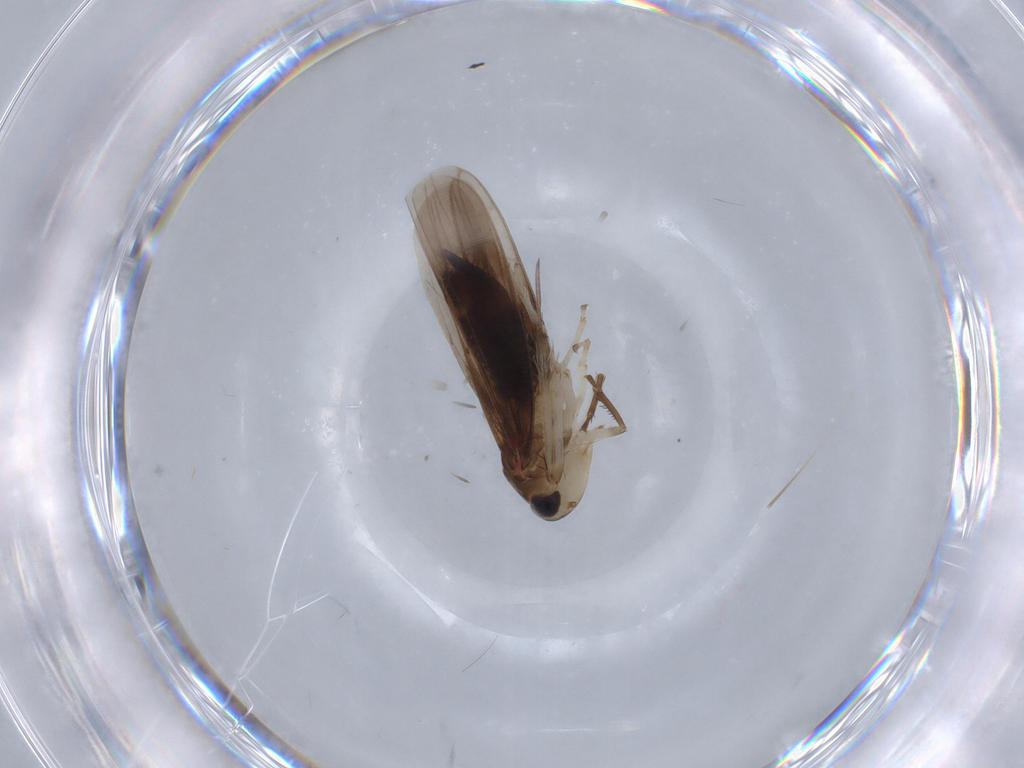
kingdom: Animalia
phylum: Arthropoda
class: Insecta
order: Hemiptera
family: Cicadellidae
